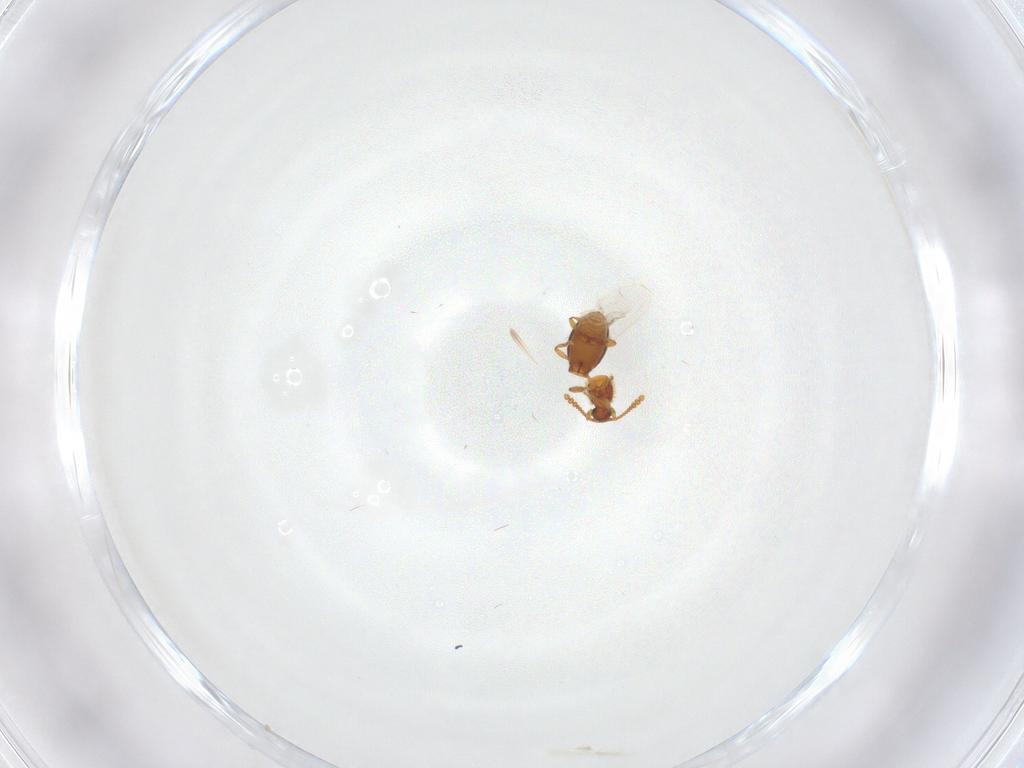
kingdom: Animalia
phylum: Arthropoda
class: Insecta
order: Coleoptera
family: Staphylinidae
